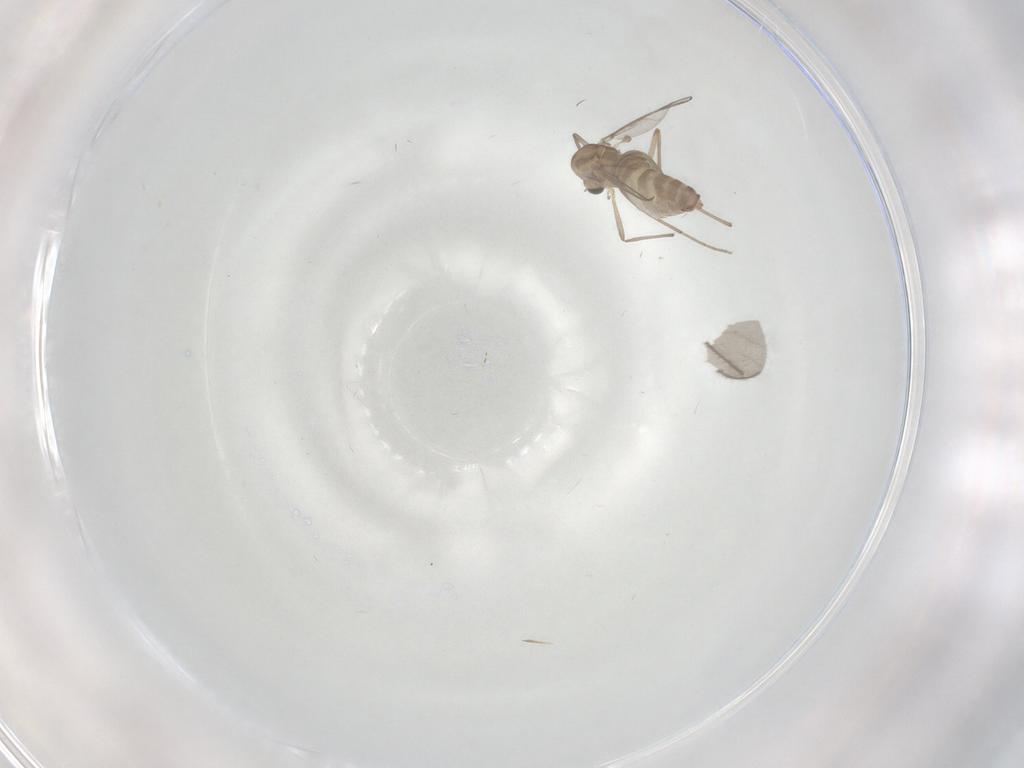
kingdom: Animalia
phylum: Arthropoda
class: Insecta
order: Diptera
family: Chironomidae
